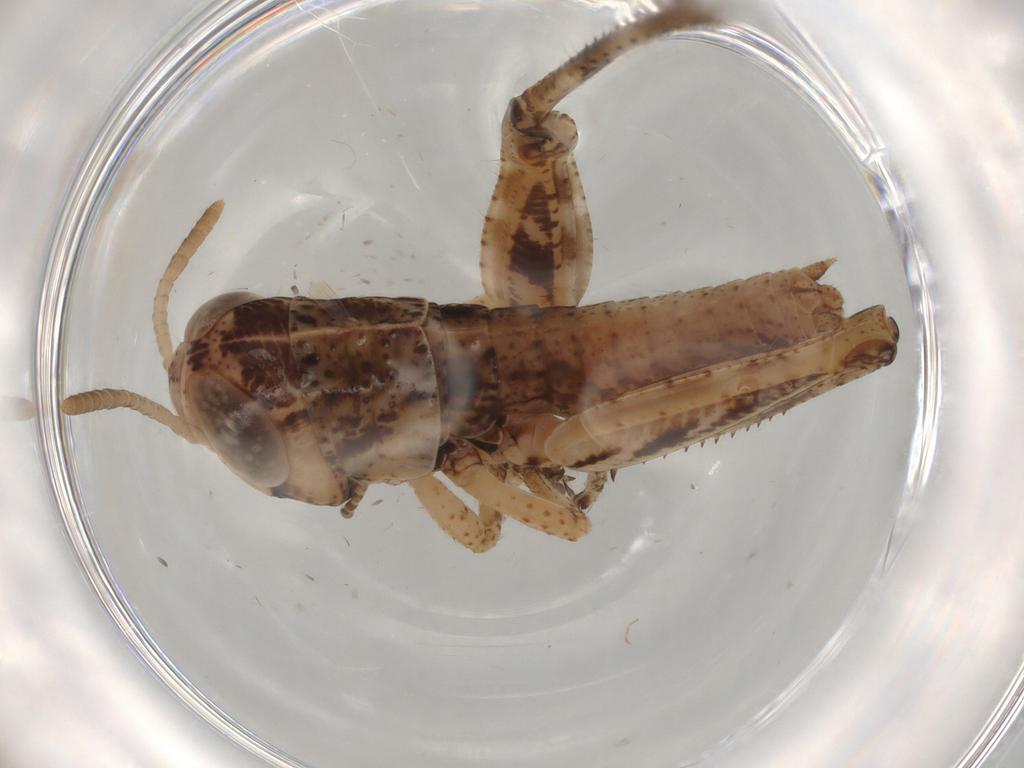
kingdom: Animalia
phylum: Arthropoda
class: Insecta
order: Orthoptera
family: Acrididae
